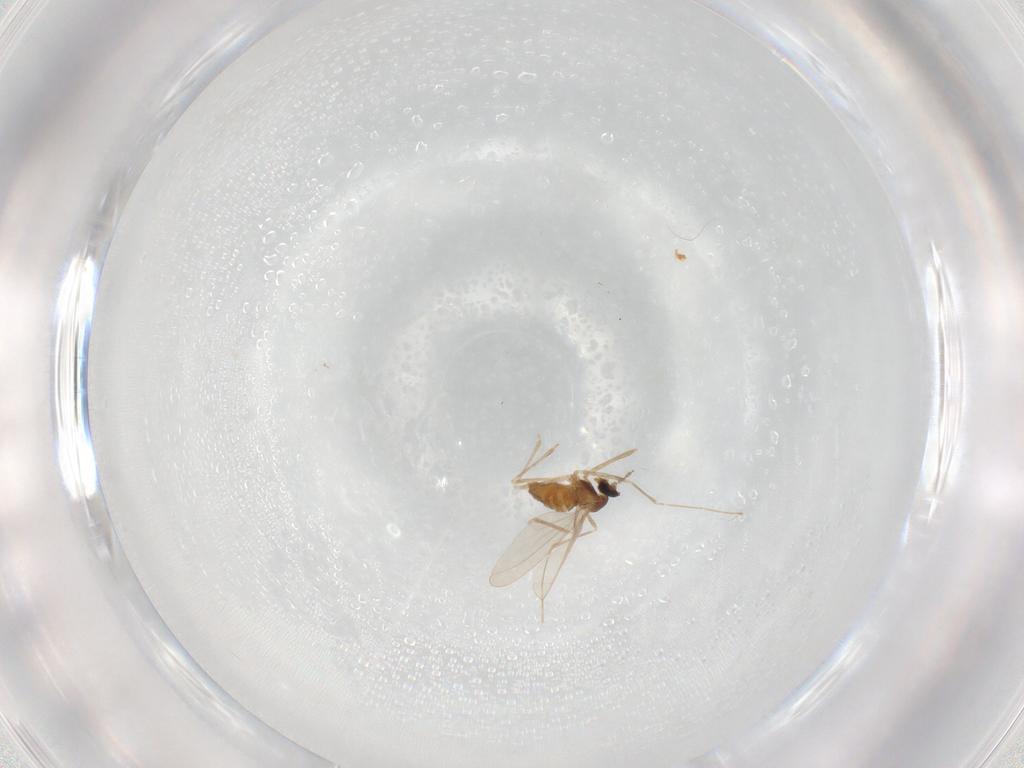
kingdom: Animalia
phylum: Arthropoda
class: Insecta
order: Diptera
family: Cecidomyiidae
